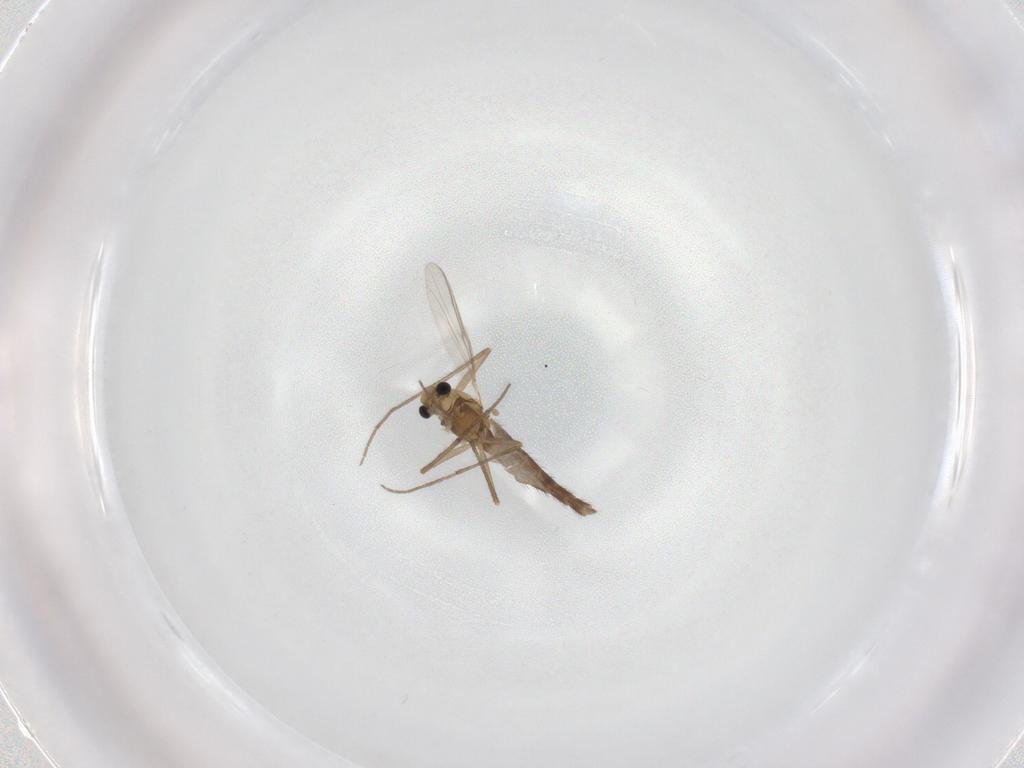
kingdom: Animalia
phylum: Arthropoda
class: Insecta
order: Diptera
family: Chironomidae
